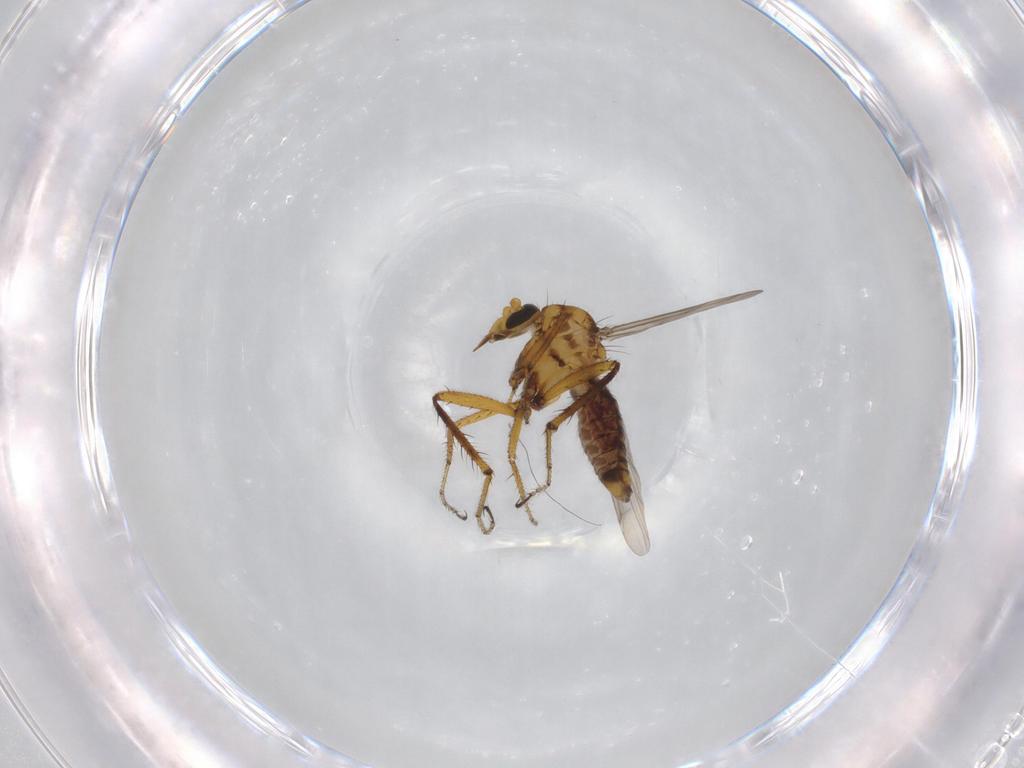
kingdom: Animalia
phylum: Arthropoda
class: Insecta
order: Diptera
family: Ceratopogonidae
